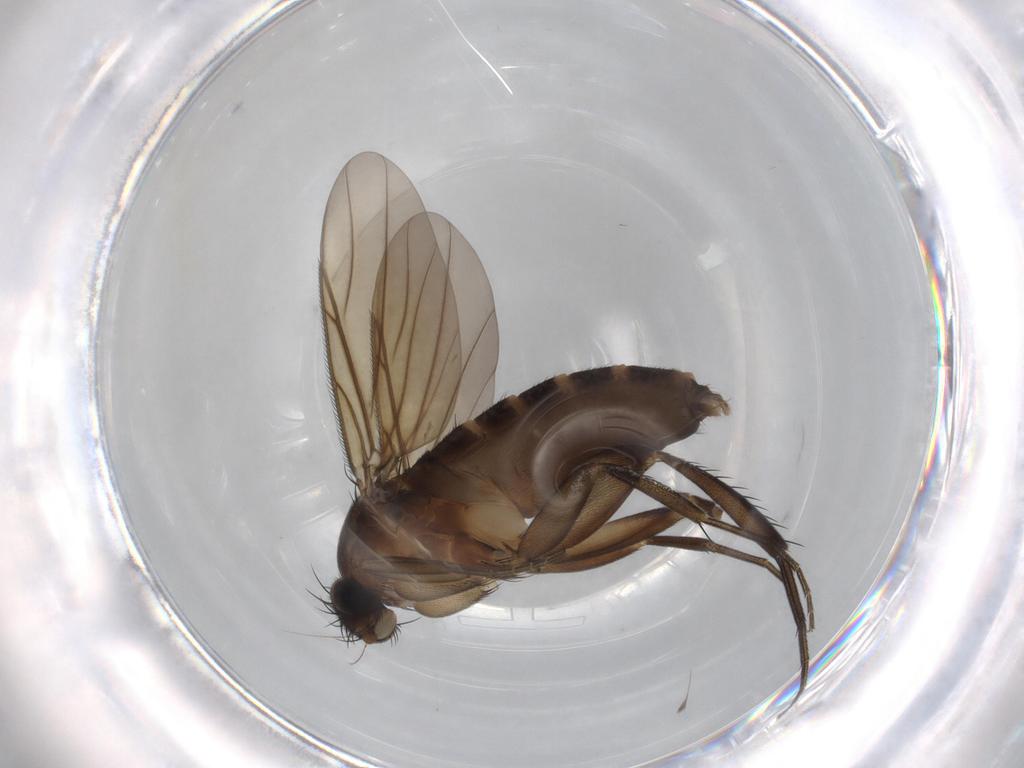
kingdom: Animalia
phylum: Arthropoda
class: Insecta
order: Diptera
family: Phoridae
